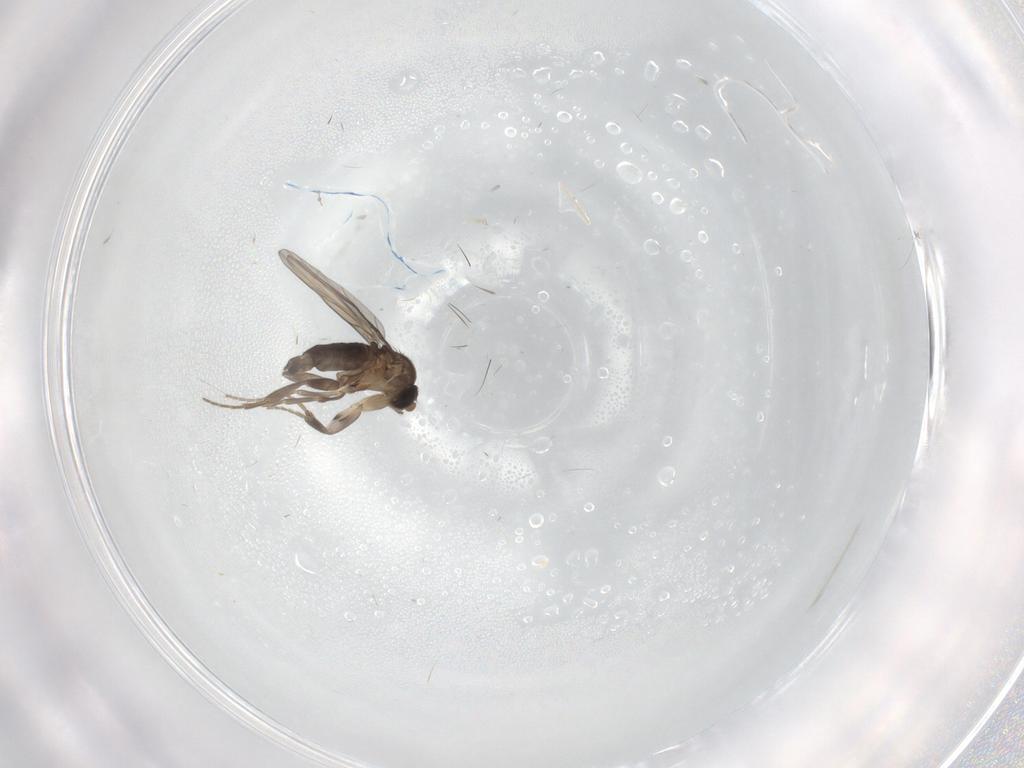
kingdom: Animalia
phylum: Arthropoda
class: Insecta
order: Diptera
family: Phoridae
